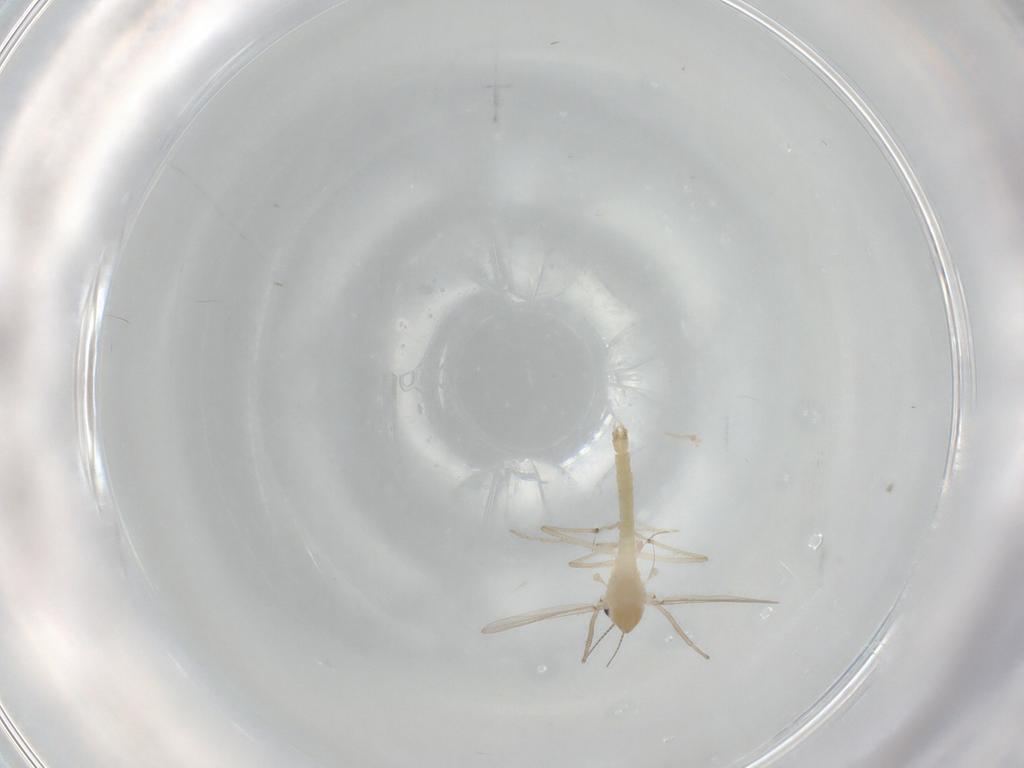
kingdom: Animalia
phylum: Arthropoda
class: Insecta
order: Diptera
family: Chironomidae
